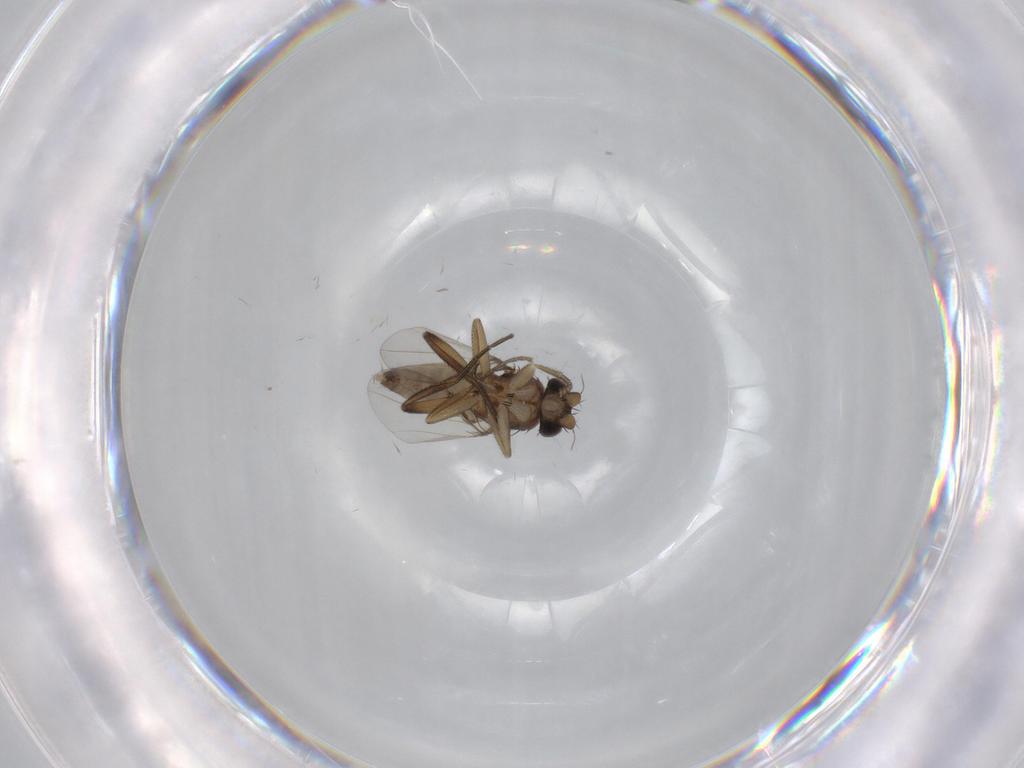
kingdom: Animalia
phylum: Arthropoda
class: Insecta
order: Diptera
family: Phoridae
